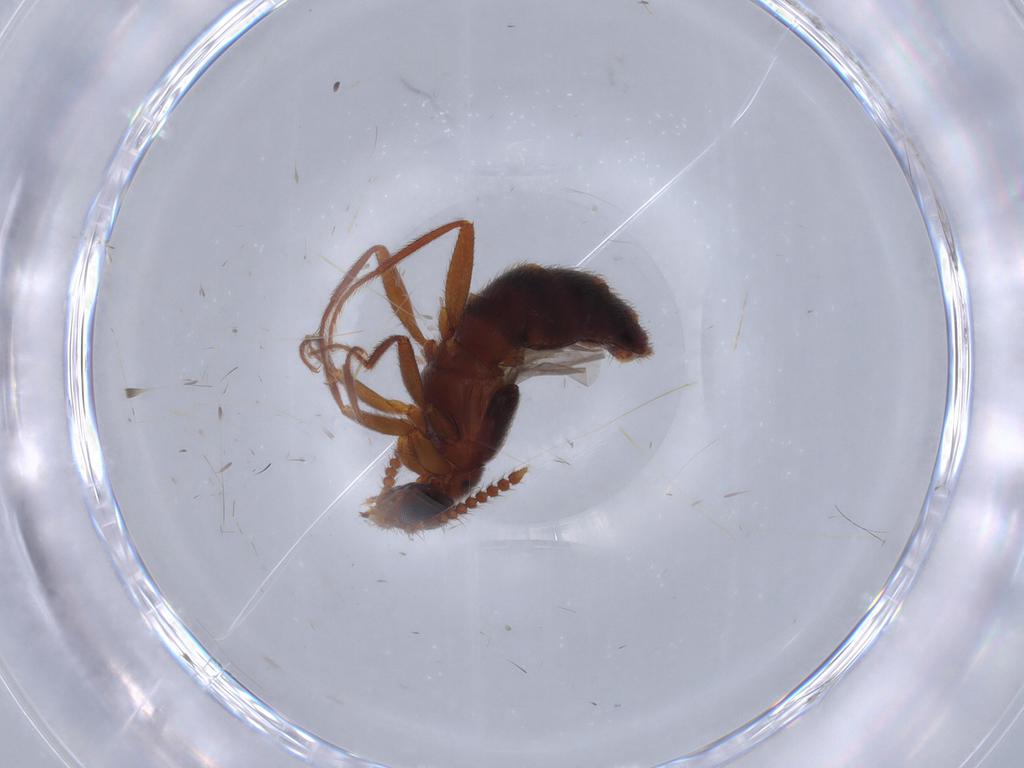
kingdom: Animalia
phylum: Arthropoda
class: Insecta
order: Coleoptera
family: Staphylinidae
